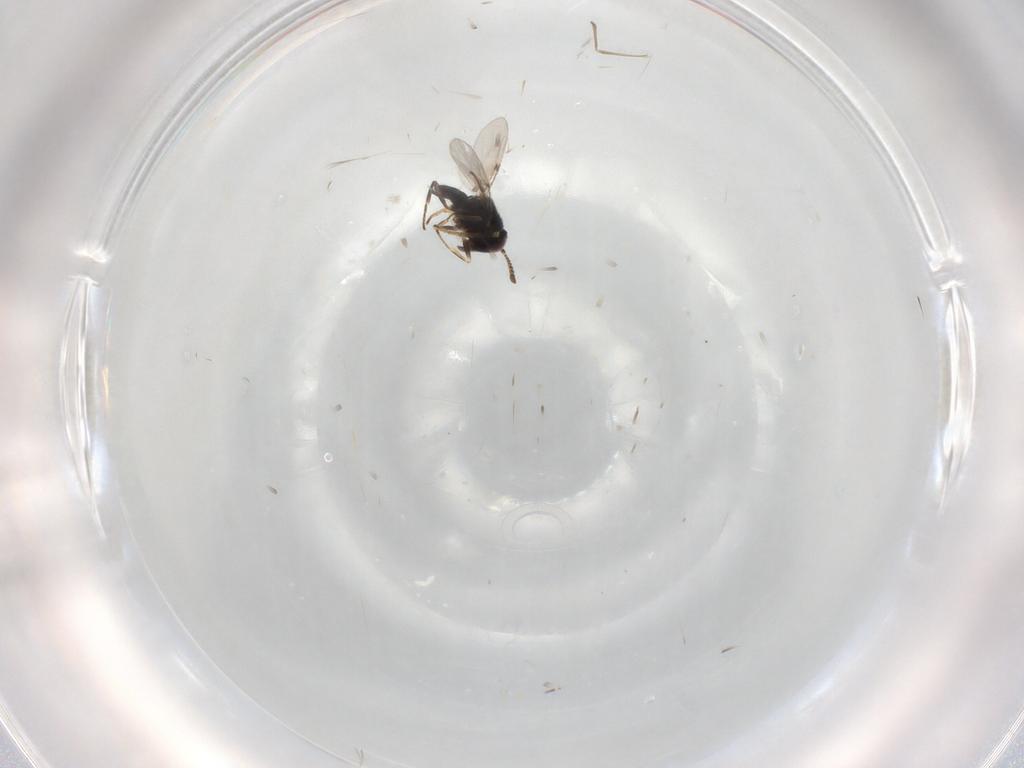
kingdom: Animalia
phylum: Arthropoda
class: Insecta
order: Hymenoptera
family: Encyrtidae
